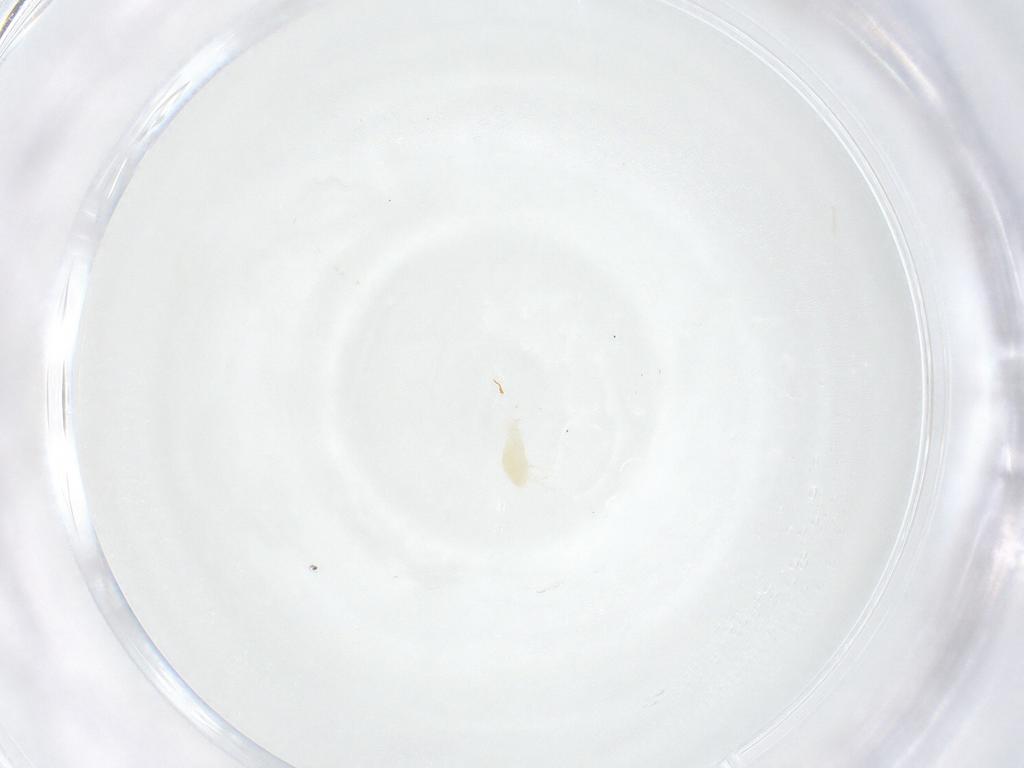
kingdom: Animalia
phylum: Arthropoda
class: Arachnida
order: Trombidiformes
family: Stigmaeidae
